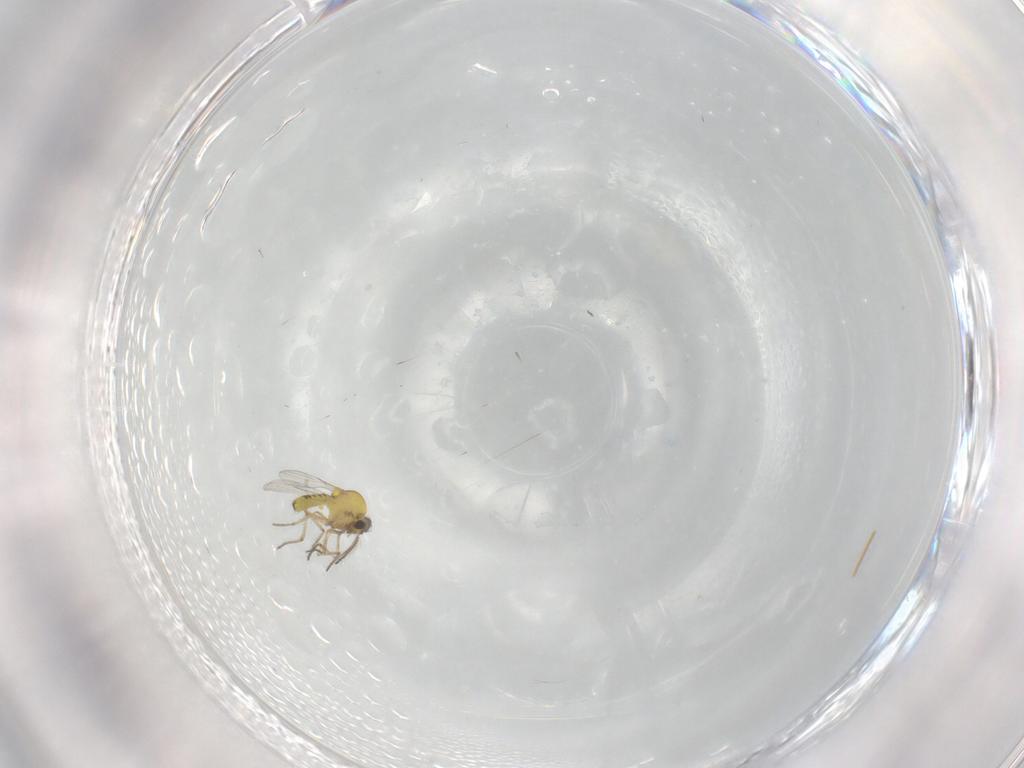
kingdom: Animalia
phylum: Arthropoda
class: Insecta
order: Diptera
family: Ceratopogonidae
